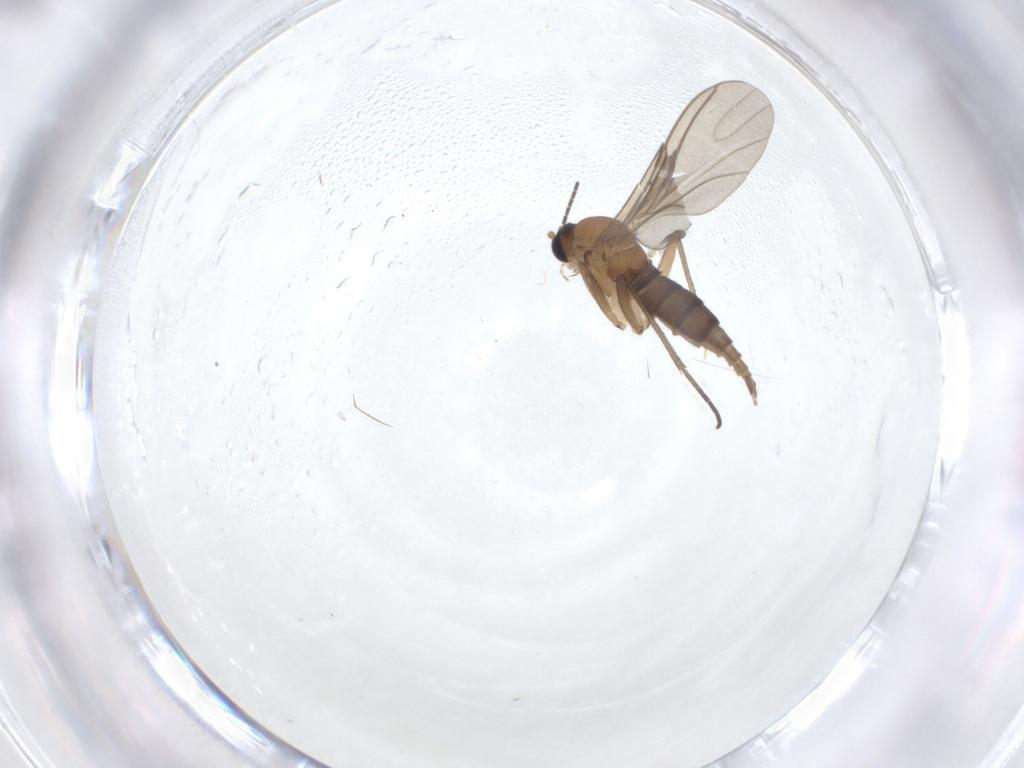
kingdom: Animalia
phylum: Arthropoda
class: Insecta
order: Diptera
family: Sciaridae
